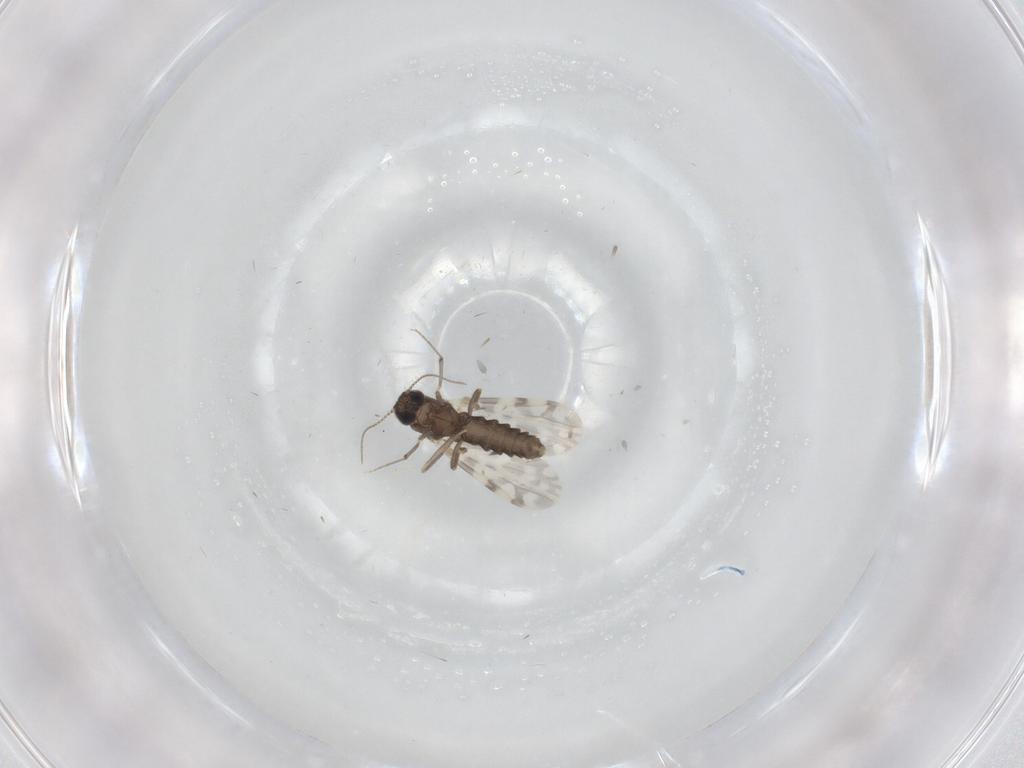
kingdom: Animalia
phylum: Arthropoda
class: Insecta
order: Diptera
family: Ceratopogonidae
